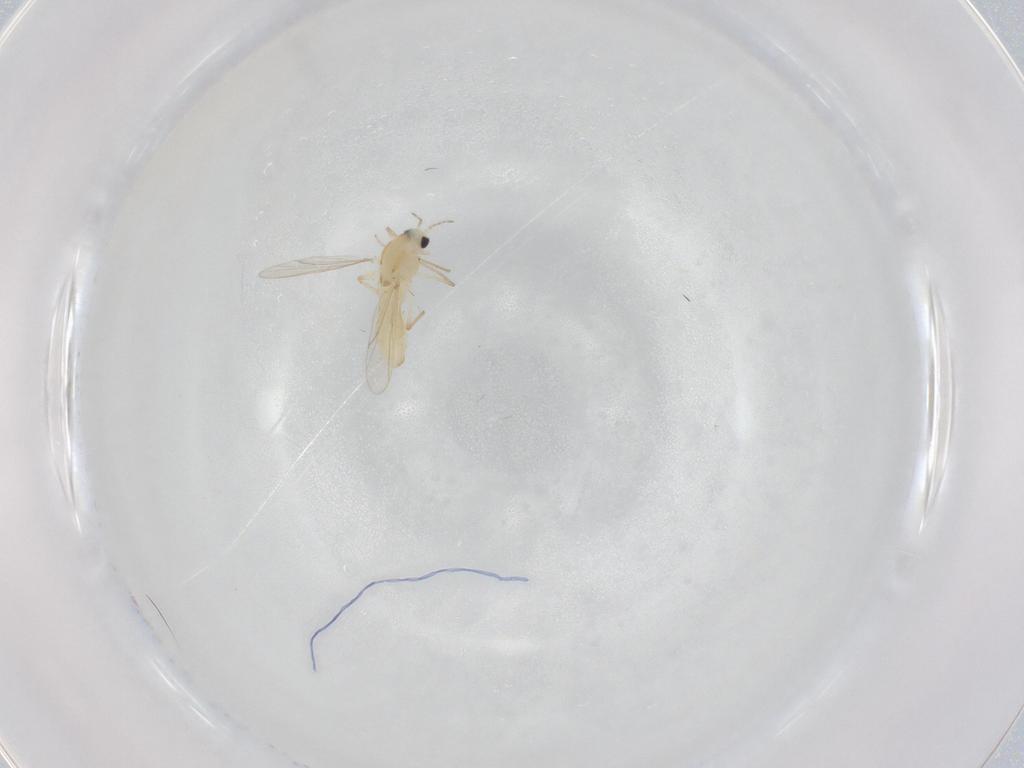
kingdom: Animalia
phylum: Arthropoda
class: Insecta
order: Diptera
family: Chironomidae
